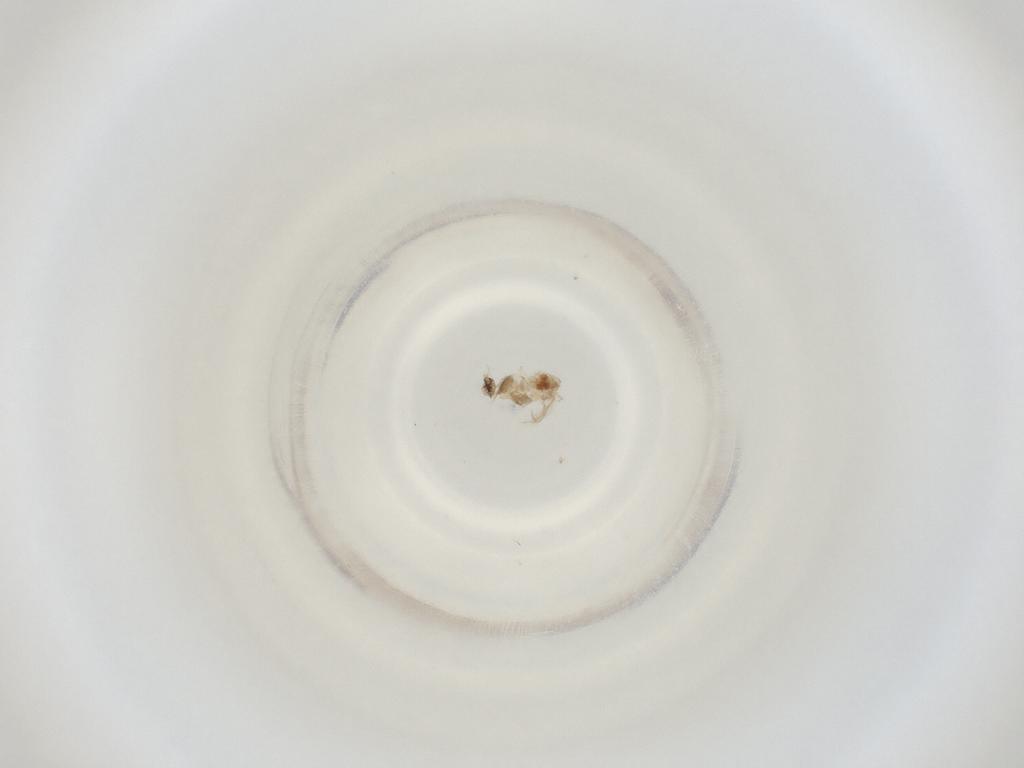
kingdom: Animalia
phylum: Arthropoda
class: Insecta
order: Diptera
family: Cecidomyiidae
